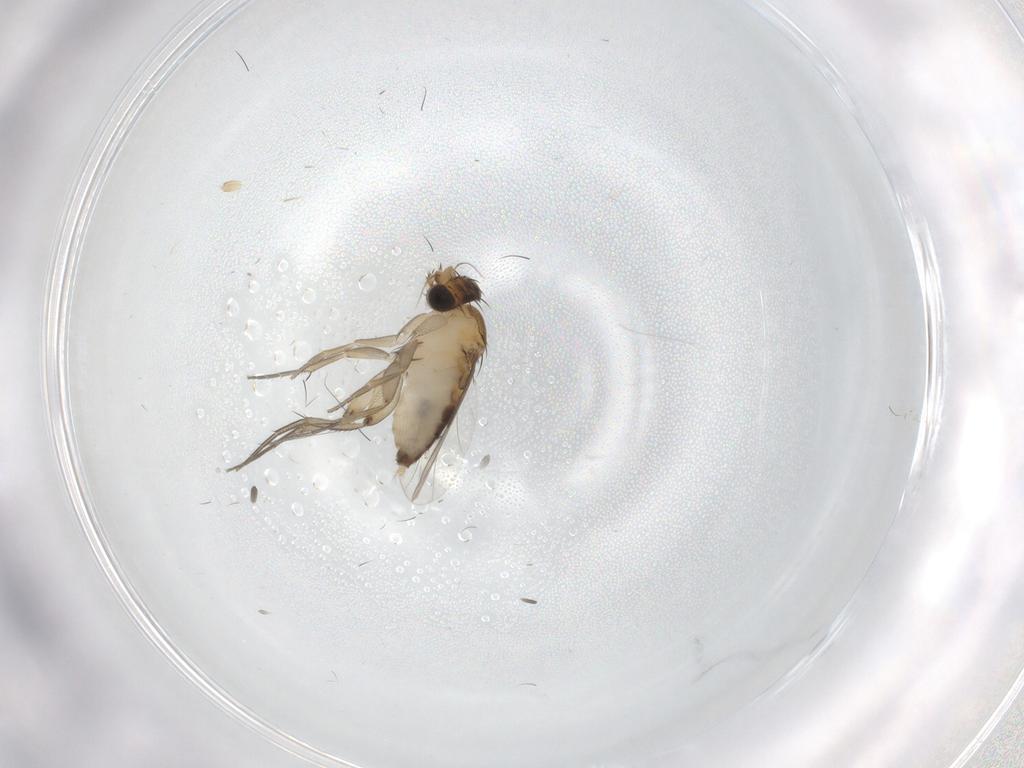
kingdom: Animalia
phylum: Arthropoda
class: Insecta
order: Diptera
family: Phoridae
